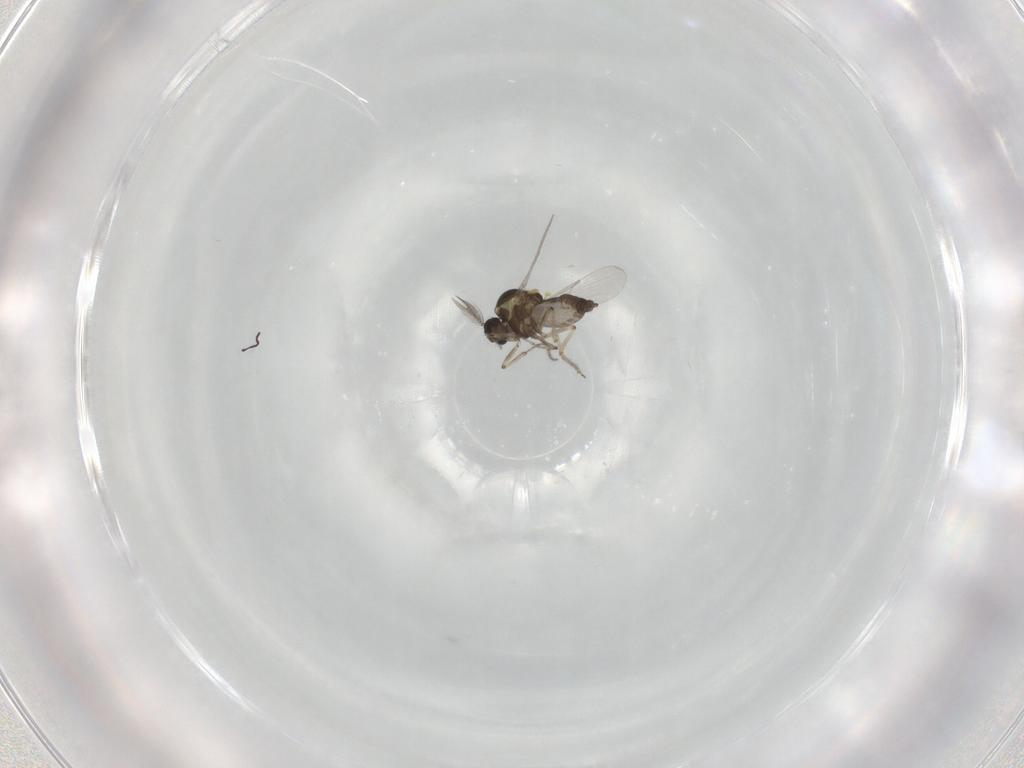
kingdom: Animalia
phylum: Arthropoda
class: Insecta
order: Diptera
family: Ceratopogonidae
